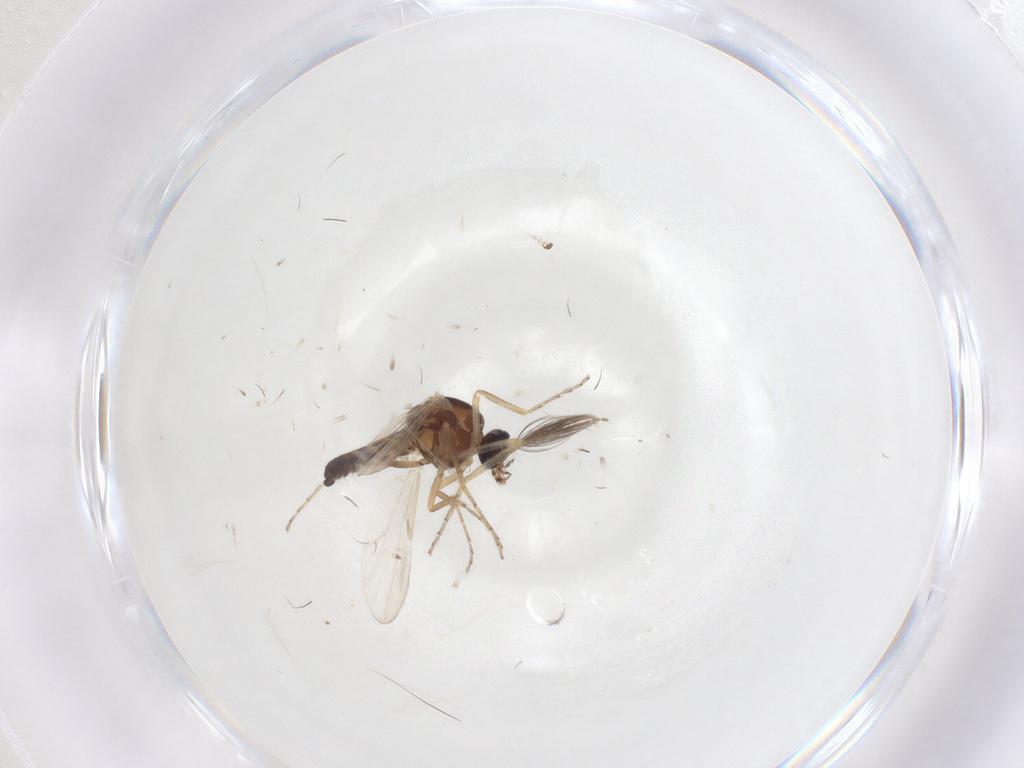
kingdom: Animalia
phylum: Arthropoda
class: Insecta
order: Diptera
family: Ceratopogonidae
